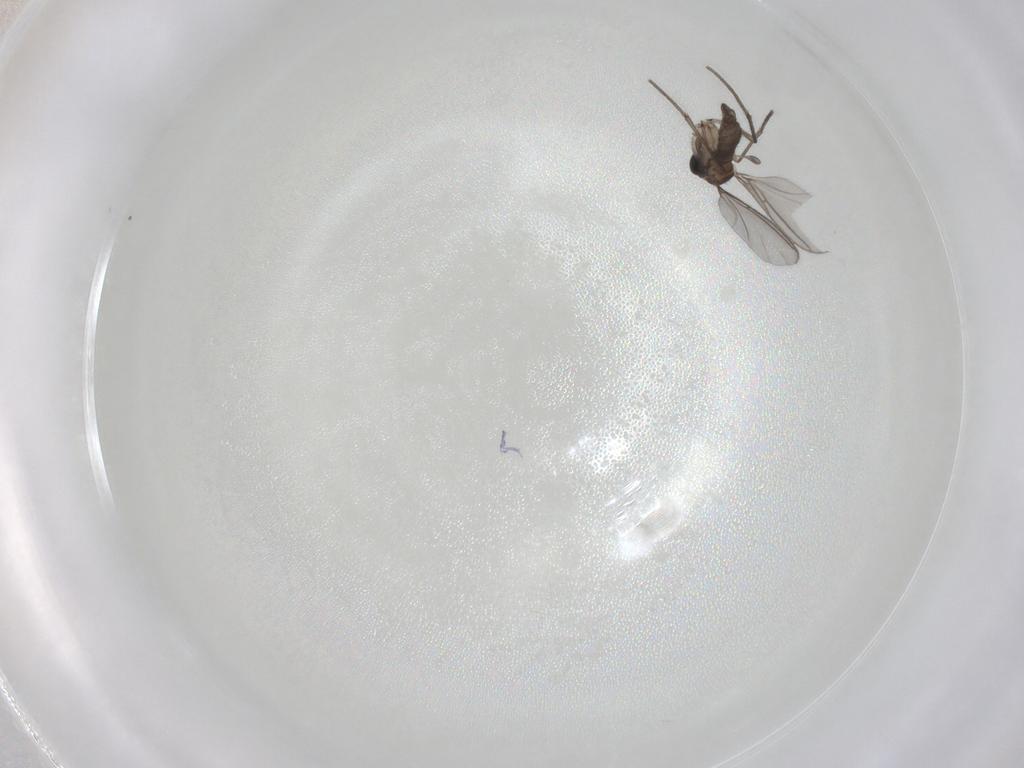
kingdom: Animalia
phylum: Arthropoda
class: Insecta
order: Diptera
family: Sciaridae
